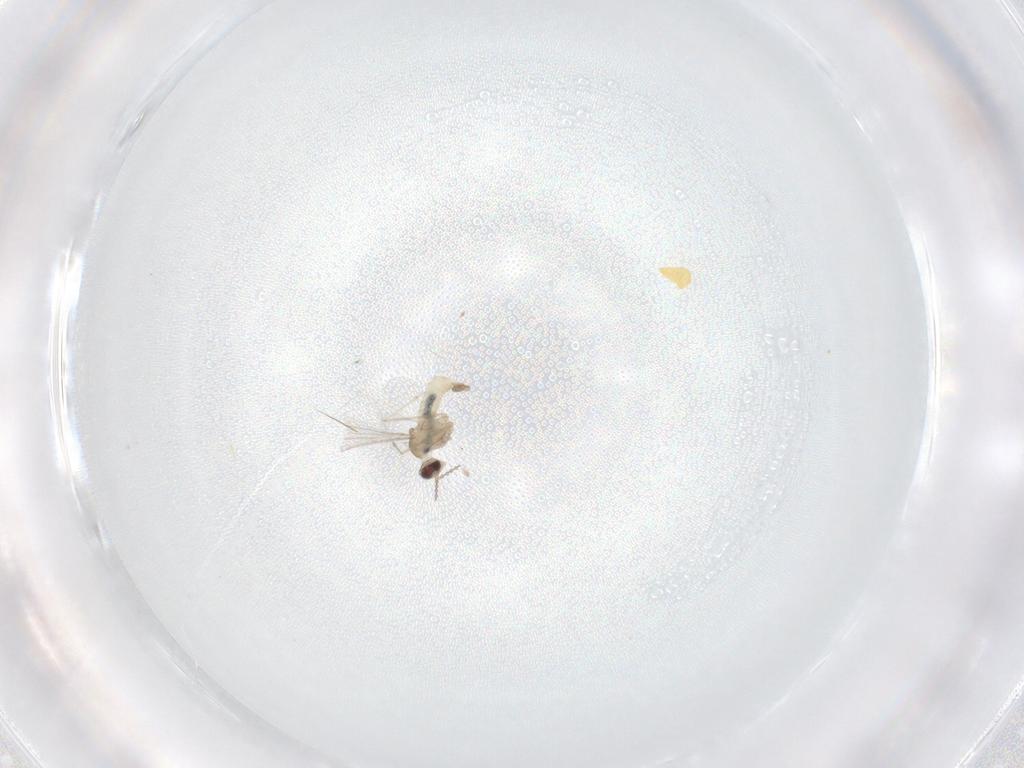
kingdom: Animalia
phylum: Arthropoda
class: Insecta
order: Diptera
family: Cecidomyiidae
